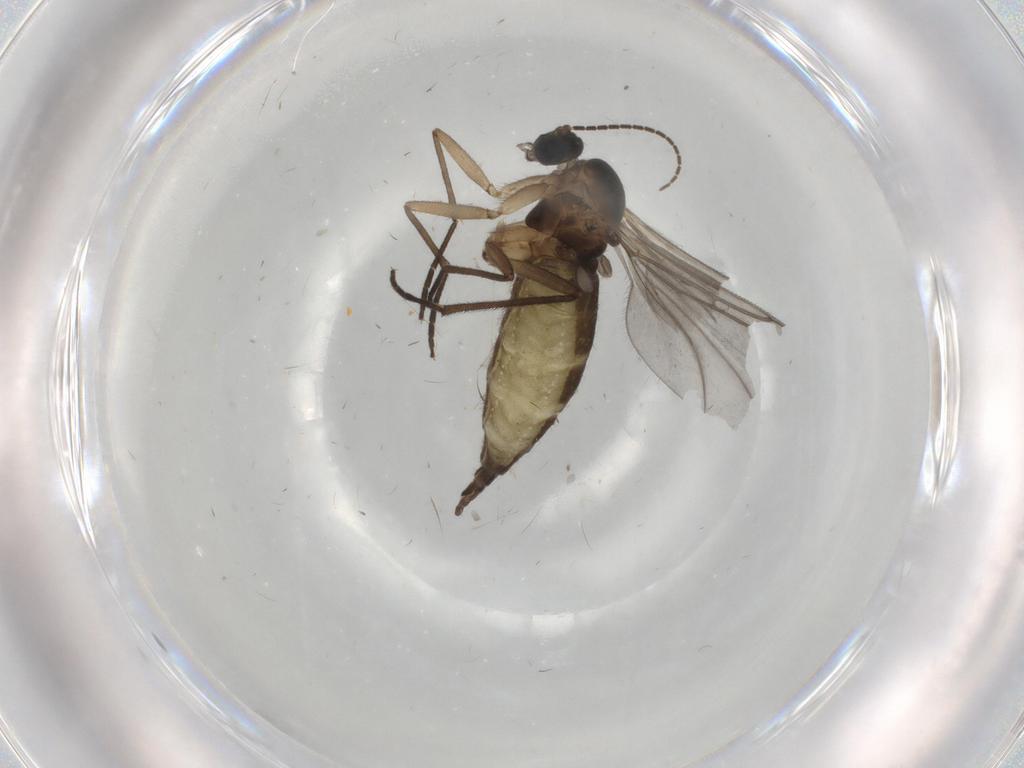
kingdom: Animalia
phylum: Arthropoda
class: Insecta
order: Diptera
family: Sciaridae
